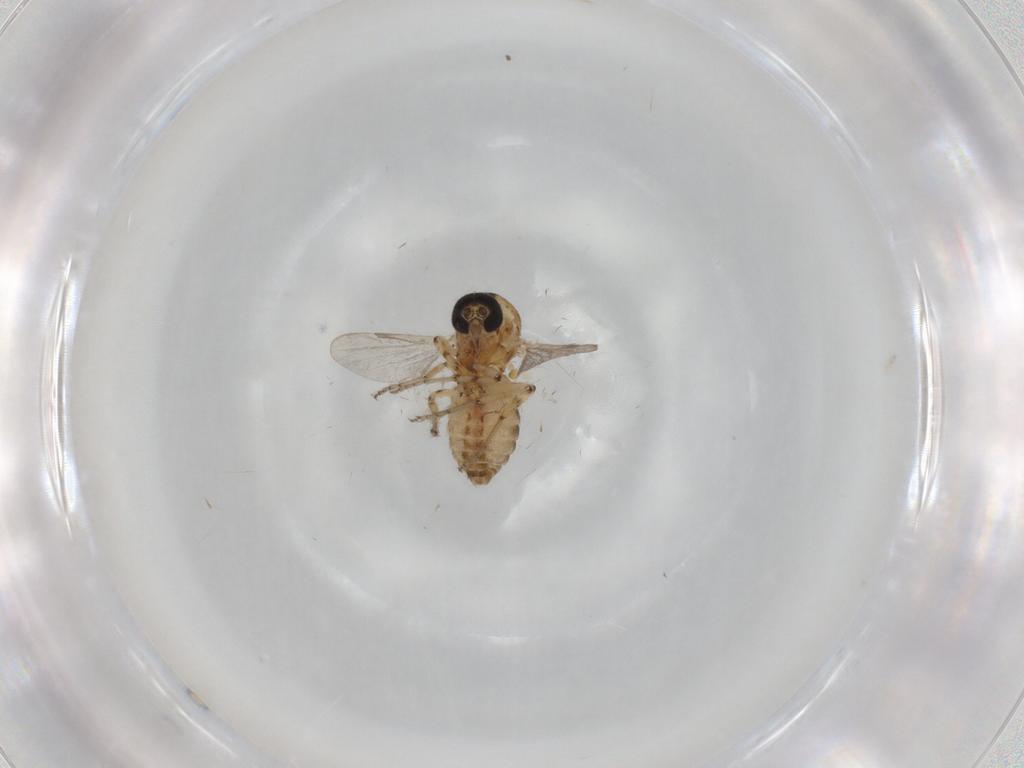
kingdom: Animalia
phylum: Arthropoda
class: Insecta
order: Diptera
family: Ceratopogonidae
